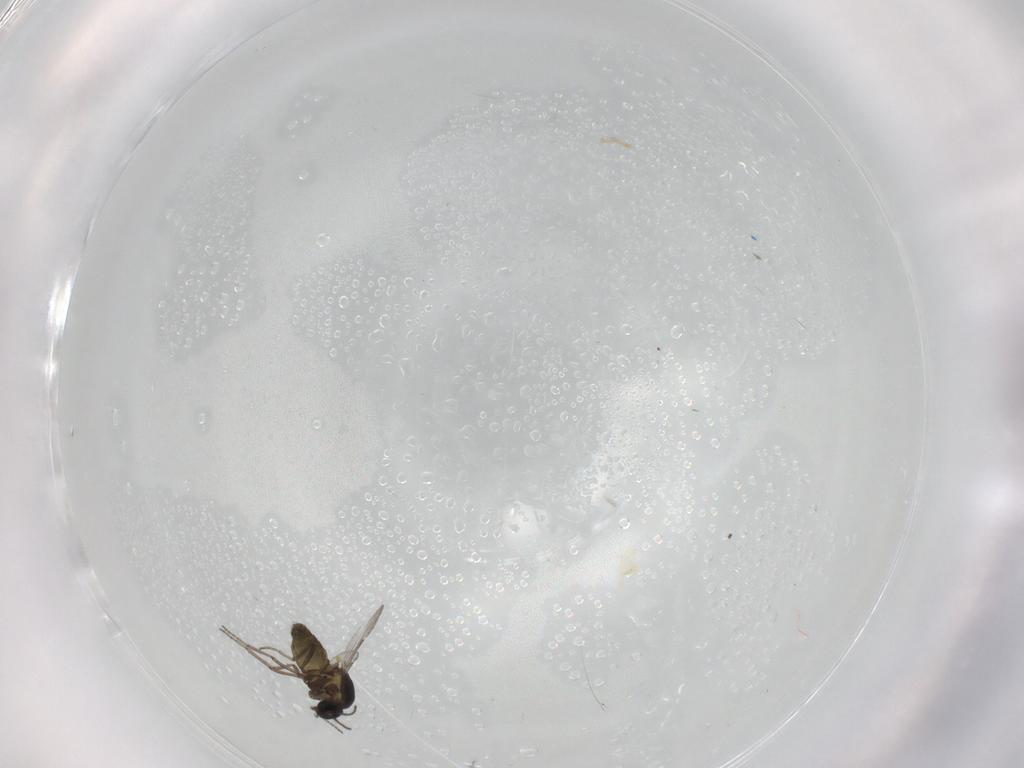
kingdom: Animalia
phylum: Arthropoda
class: Insecta
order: Diptera
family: Ceratopogonidae
